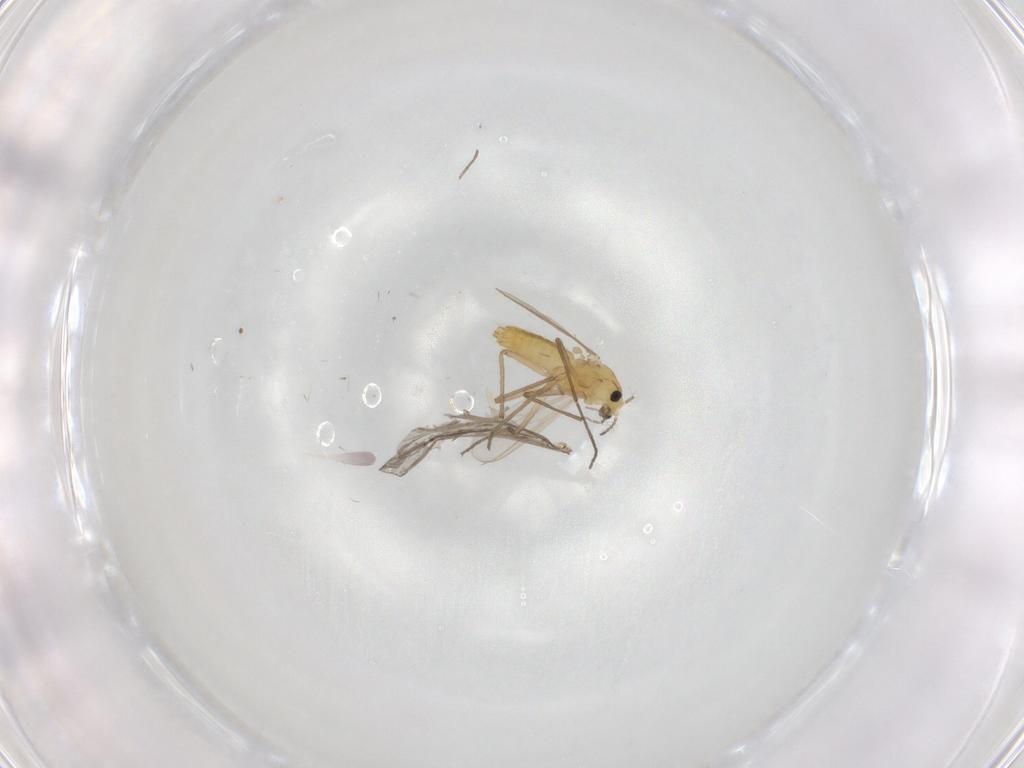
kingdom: Animalia
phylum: Arthropoda
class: Insecta
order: Diptera
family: Chironomidae
